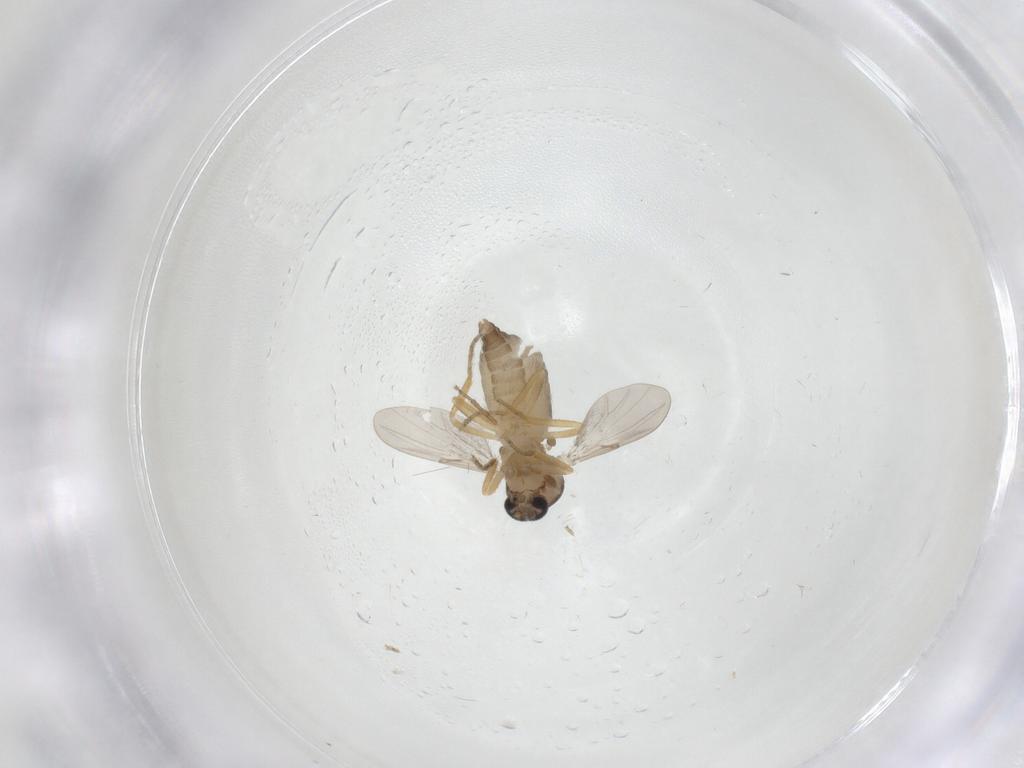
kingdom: Animalia
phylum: Arthropoda
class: Insecta
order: Diptera
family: Ceratopogonidae
